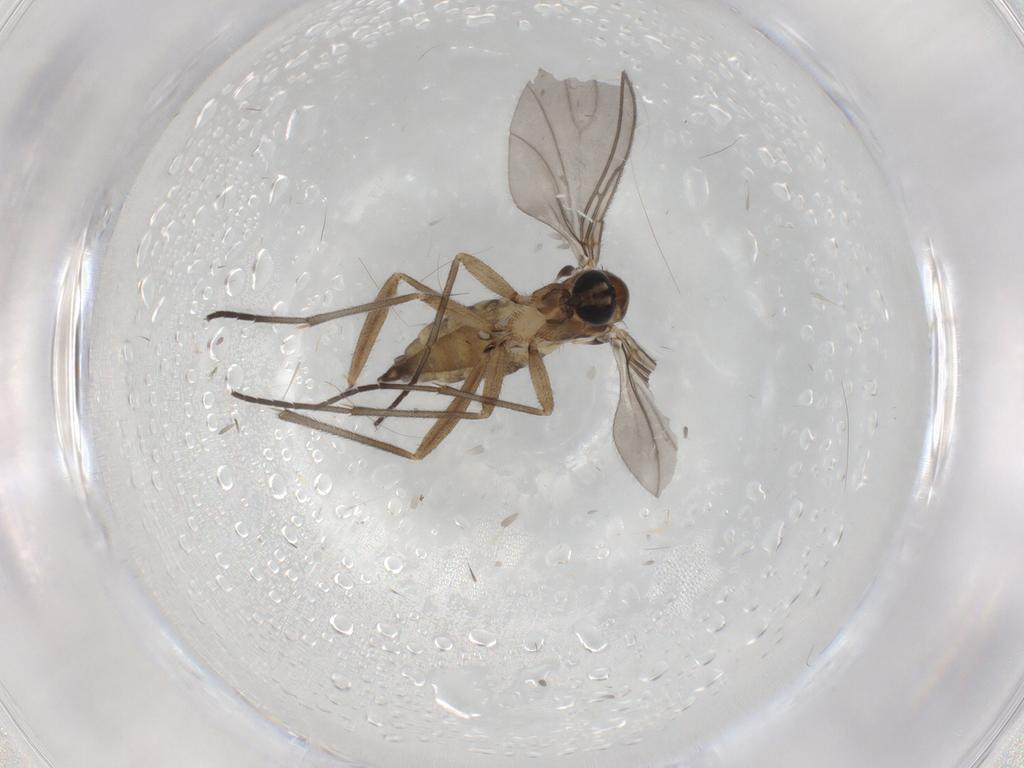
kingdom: Animalia
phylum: Arthropoda
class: Insecta
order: Diptera
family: Sciaridae
